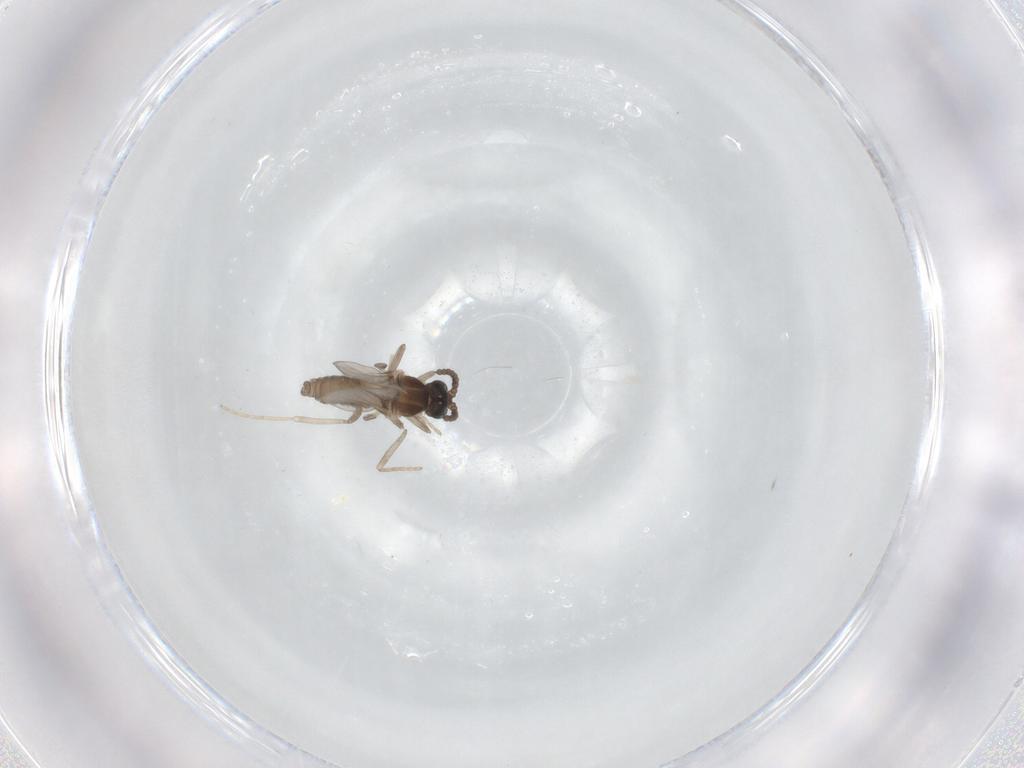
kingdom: Animalia
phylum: Arthropoda
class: Insecta
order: Diptera
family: Cecidomyiidae
